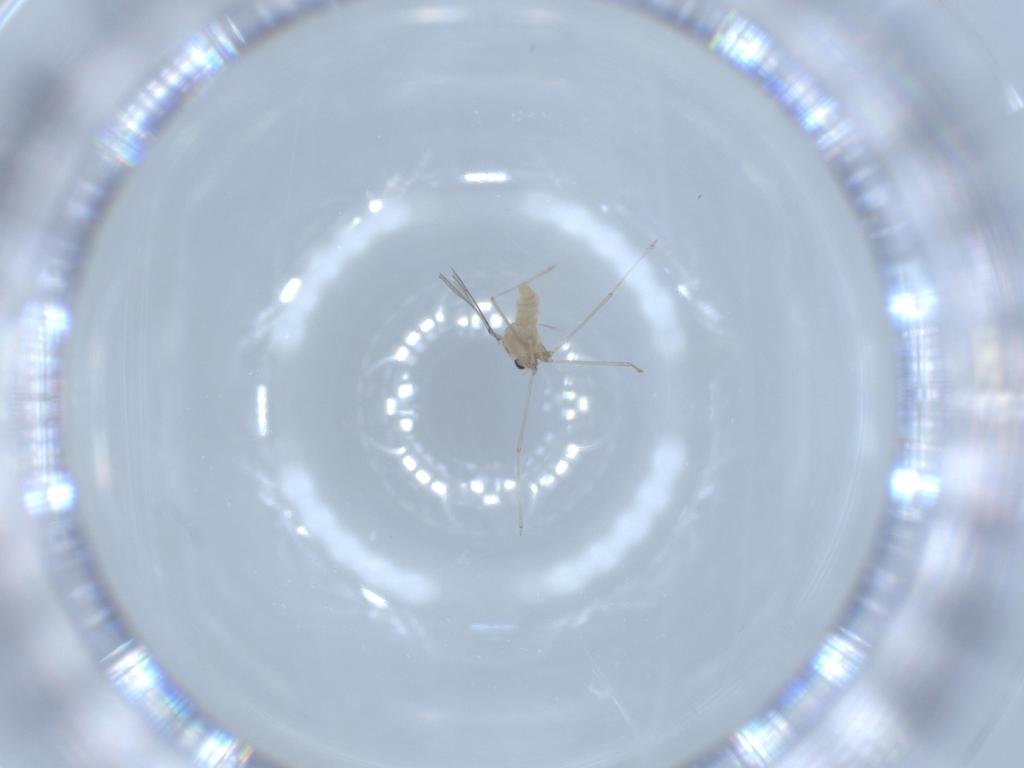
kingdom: Animalia
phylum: Arthropoda
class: Insecta
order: Diptera
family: Cecidomyiidae
